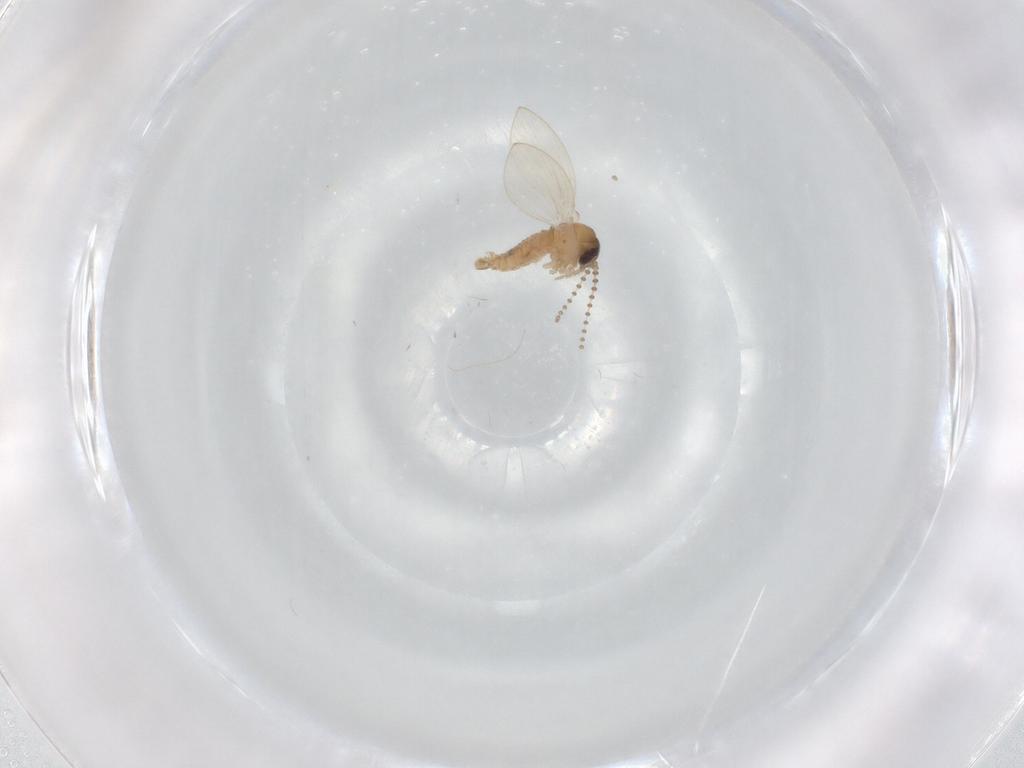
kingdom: Animalia
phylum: Arthropoda
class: Insecta
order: Diptera
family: Psychodidae
